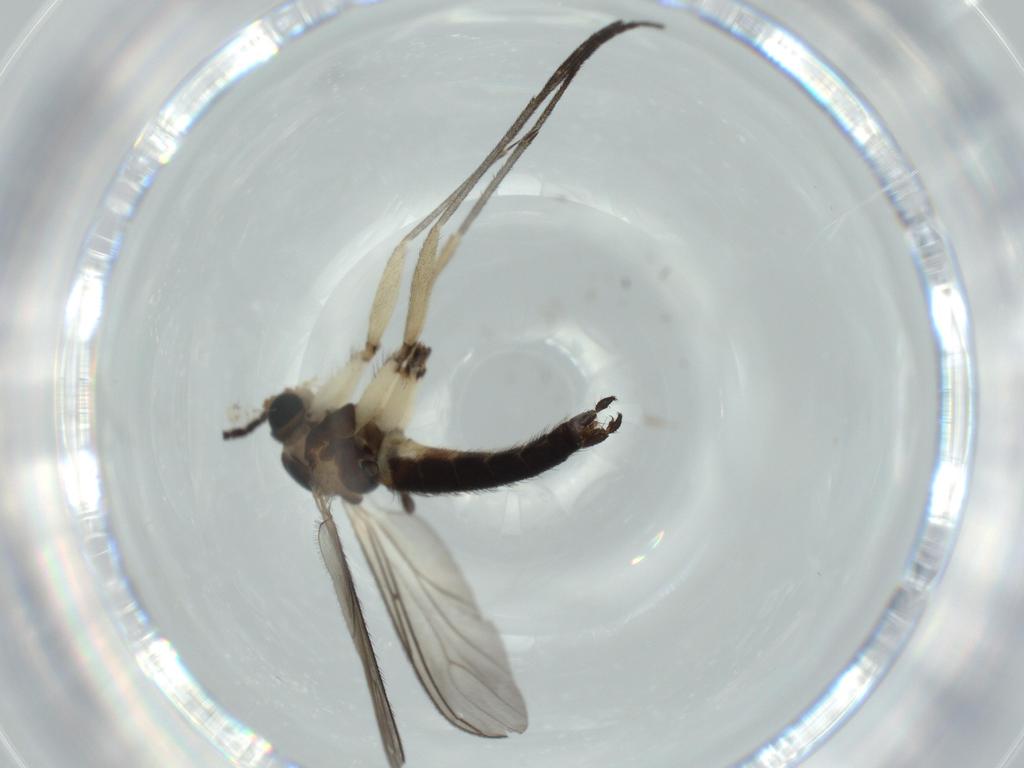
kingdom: Animalia
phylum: Arthropoda
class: Insecta
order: Diptera
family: Sciaridae
